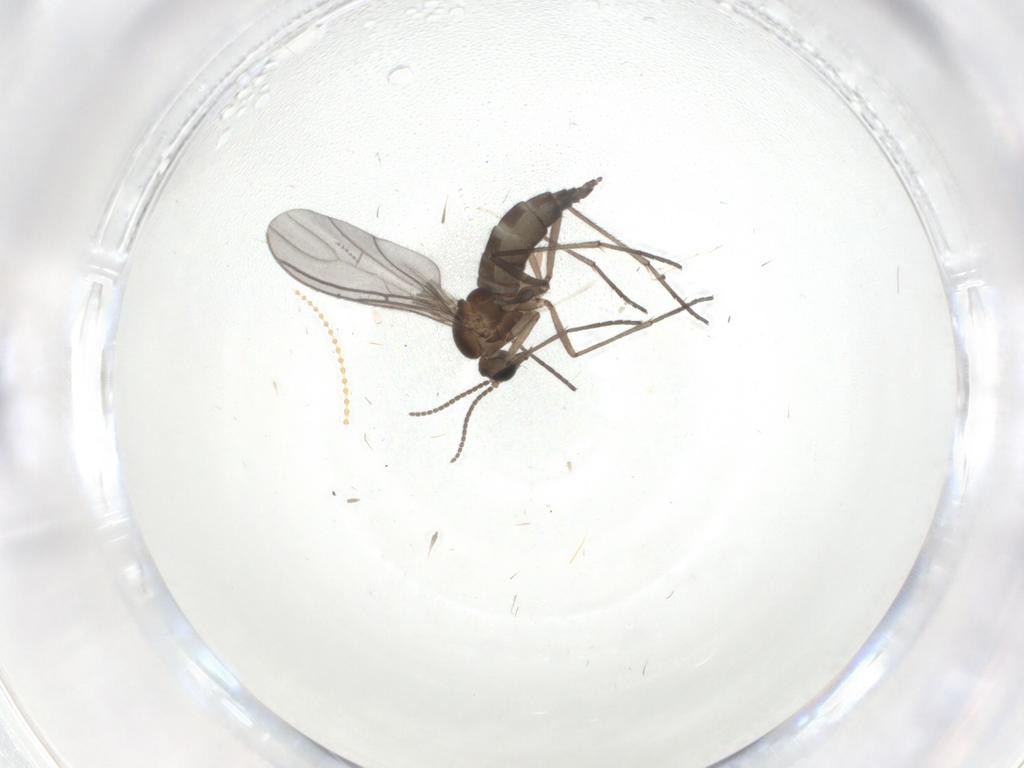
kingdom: Animalia
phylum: Arthropoda
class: Insecta
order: Diptera
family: Sciaridae
